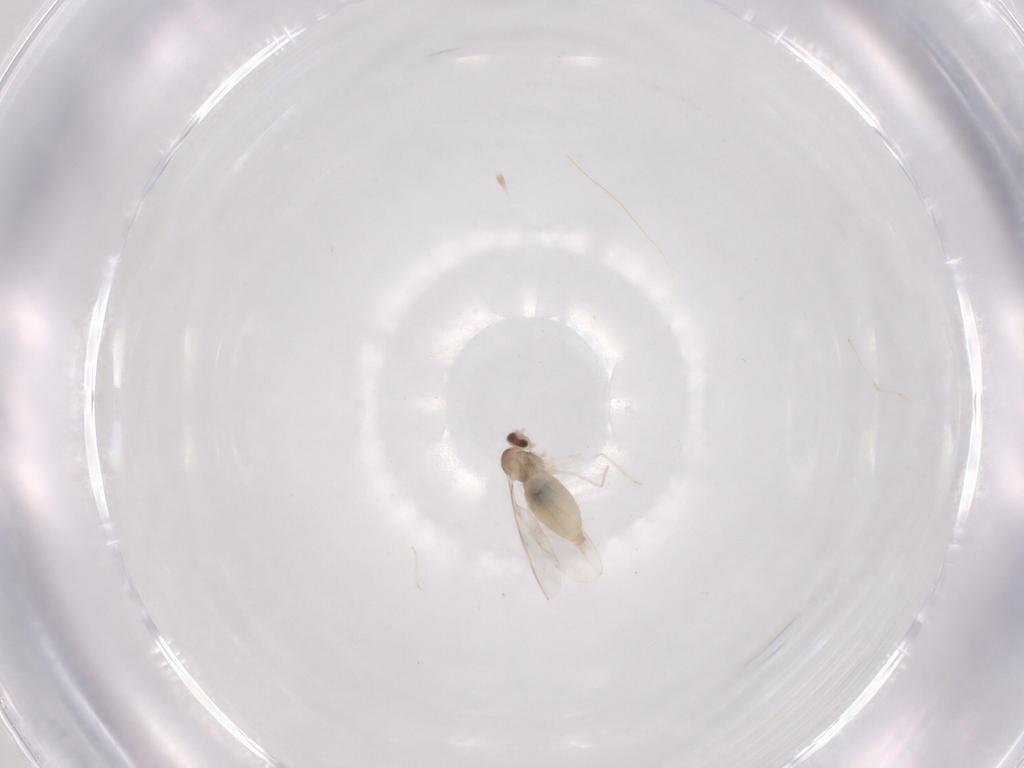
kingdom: Animalia
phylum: Arthropoda
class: Insecta
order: Diptera
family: Cecidomyiidae
